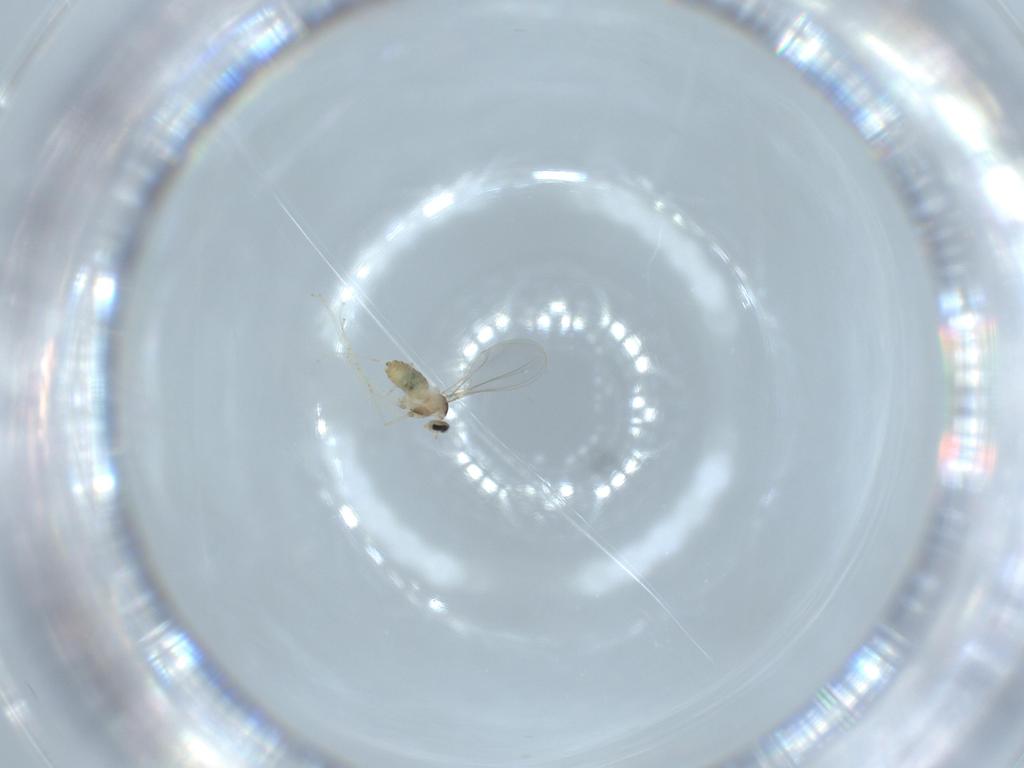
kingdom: Animalia
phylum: Arthropoda
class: Insecta
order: Diptera
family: Cecidomyiidae
